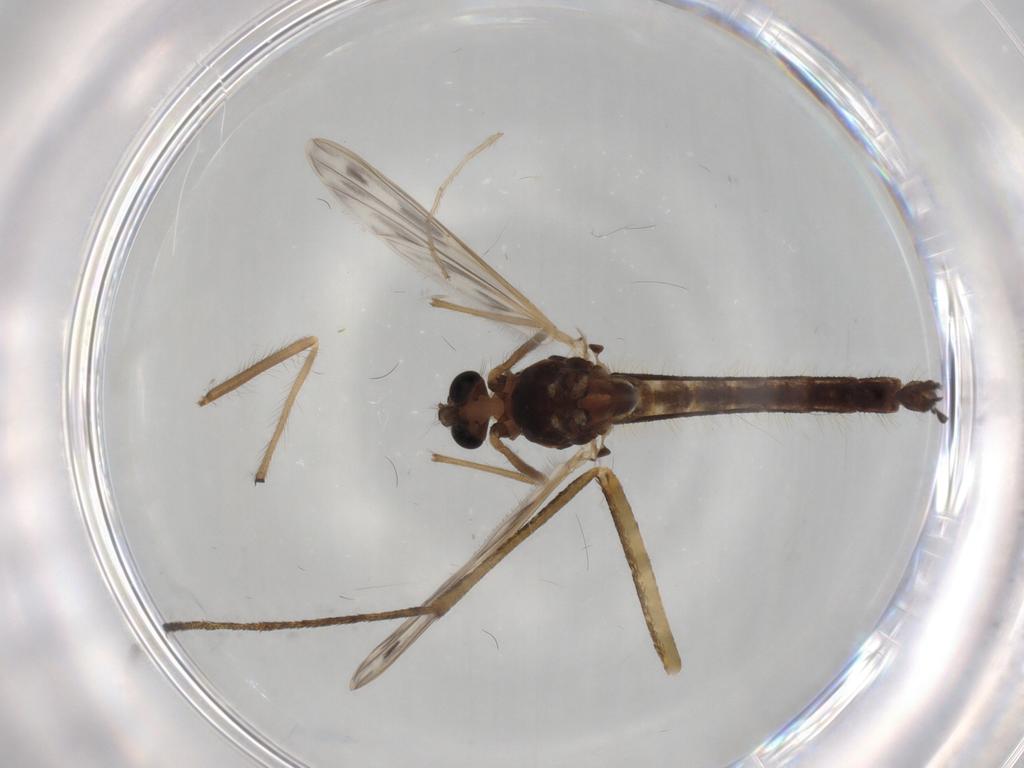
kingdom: Animalia
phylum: Arthropoda
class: Insecta
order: Diptera
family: Chironomidae
